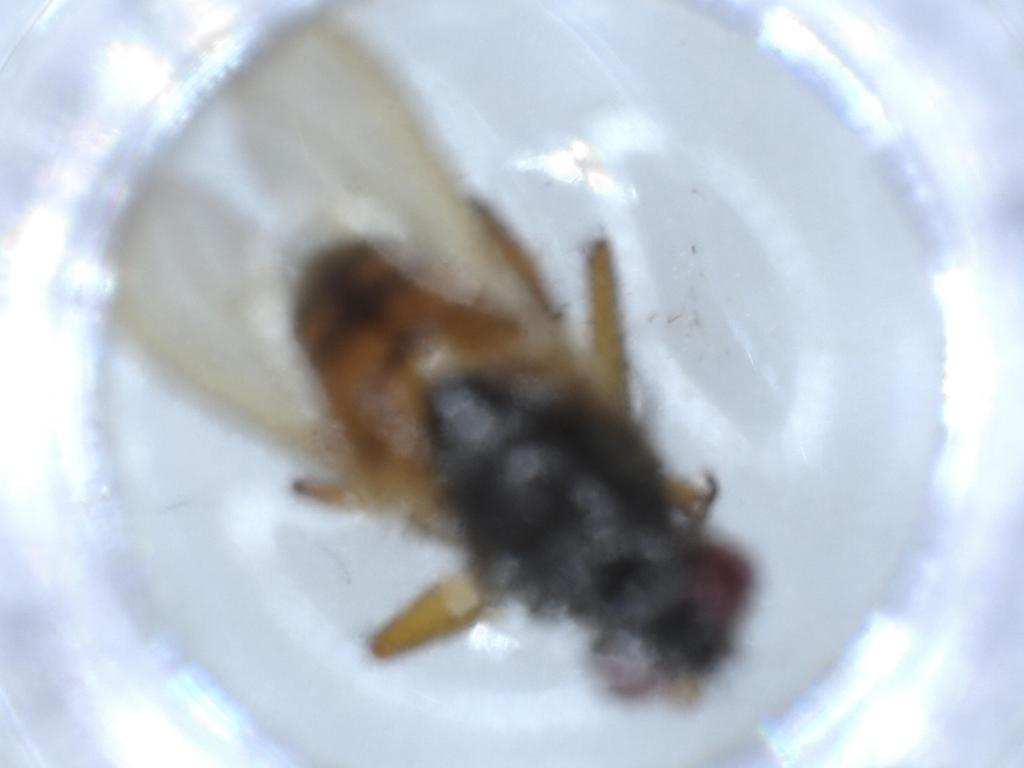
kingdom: Animalia
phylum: Arthropoda
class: Insecta
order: Diptera
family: Muscidae
